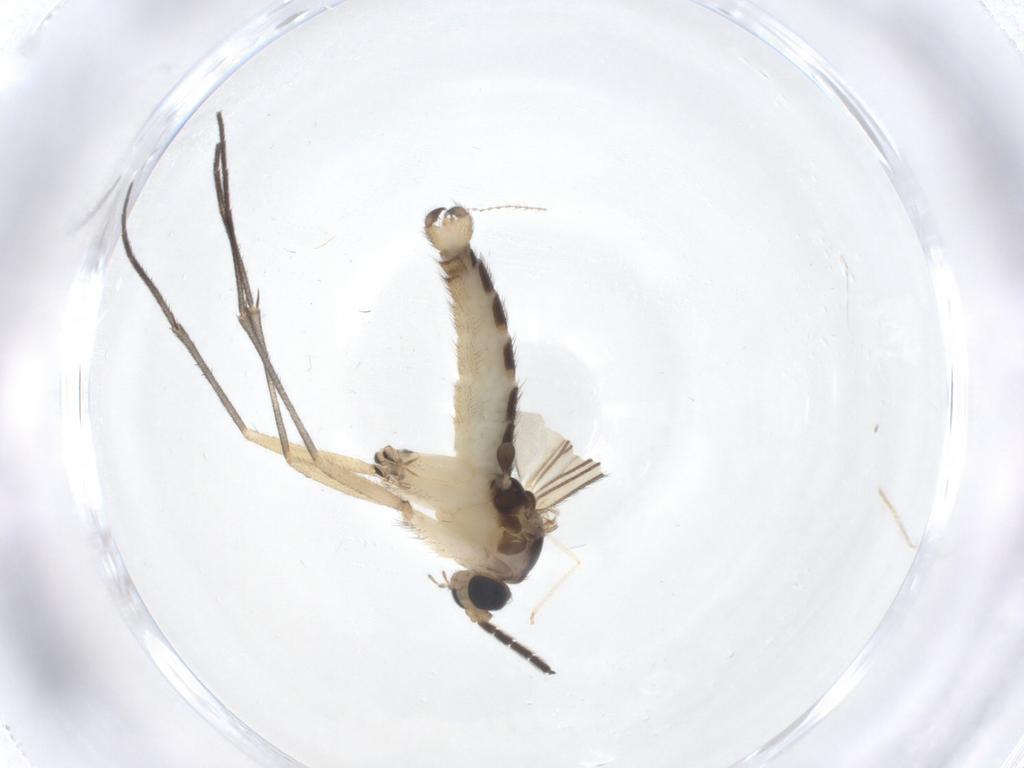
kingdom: Animalia
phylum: Arthropoda
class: Insecta
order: Diptera
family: Sciaridae
